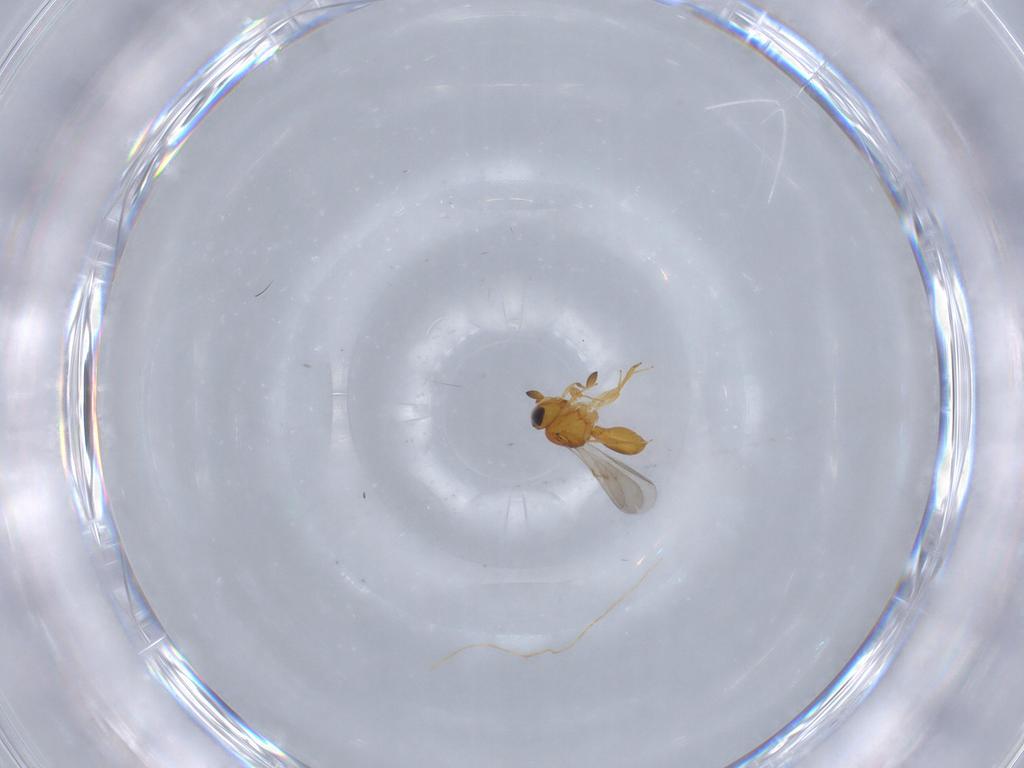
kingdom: Animalia
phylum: Arthropoda
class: Insecta
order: Hymenoptera
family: Scelionidae
